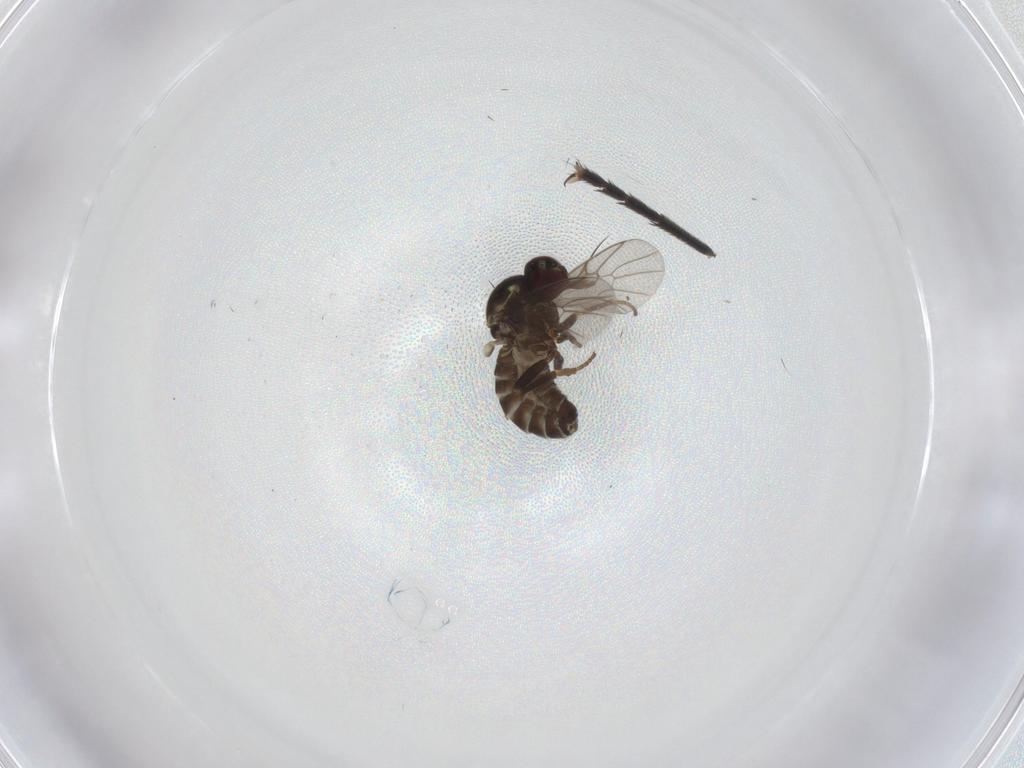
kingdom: Animalia
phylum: Arthropoda
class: Insecta
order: Diptera
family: Anthomyiidae
